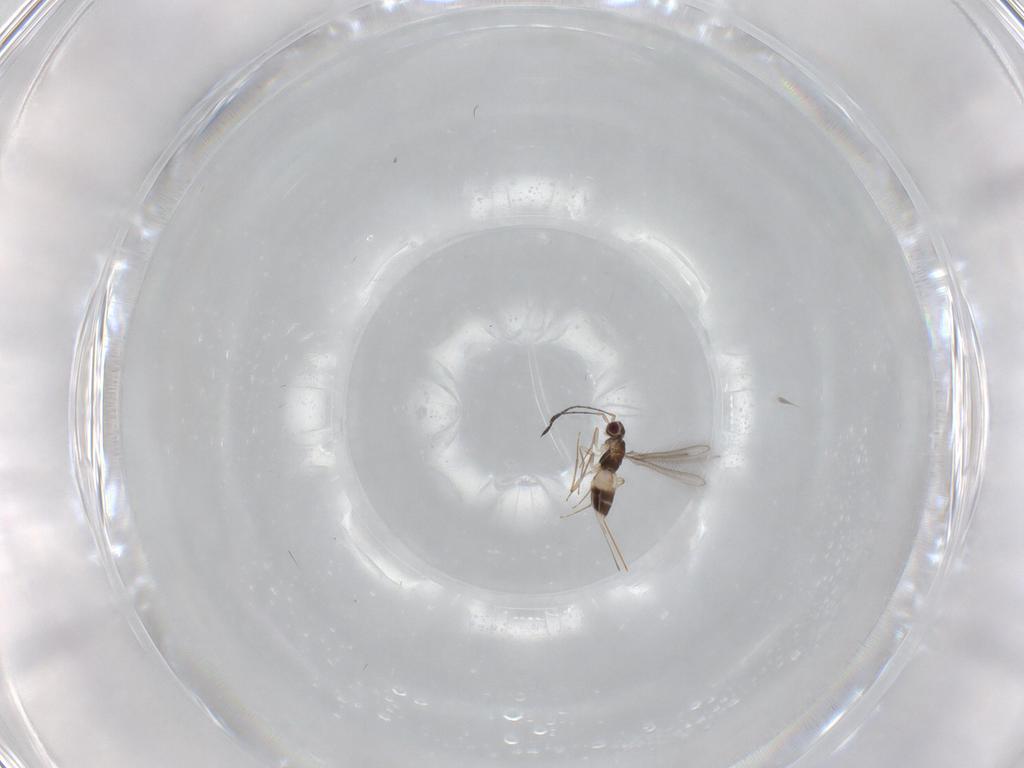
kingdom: Animalia
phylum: Arthropoda
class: Insecta
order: Hymenoptera
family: Mymaridae
